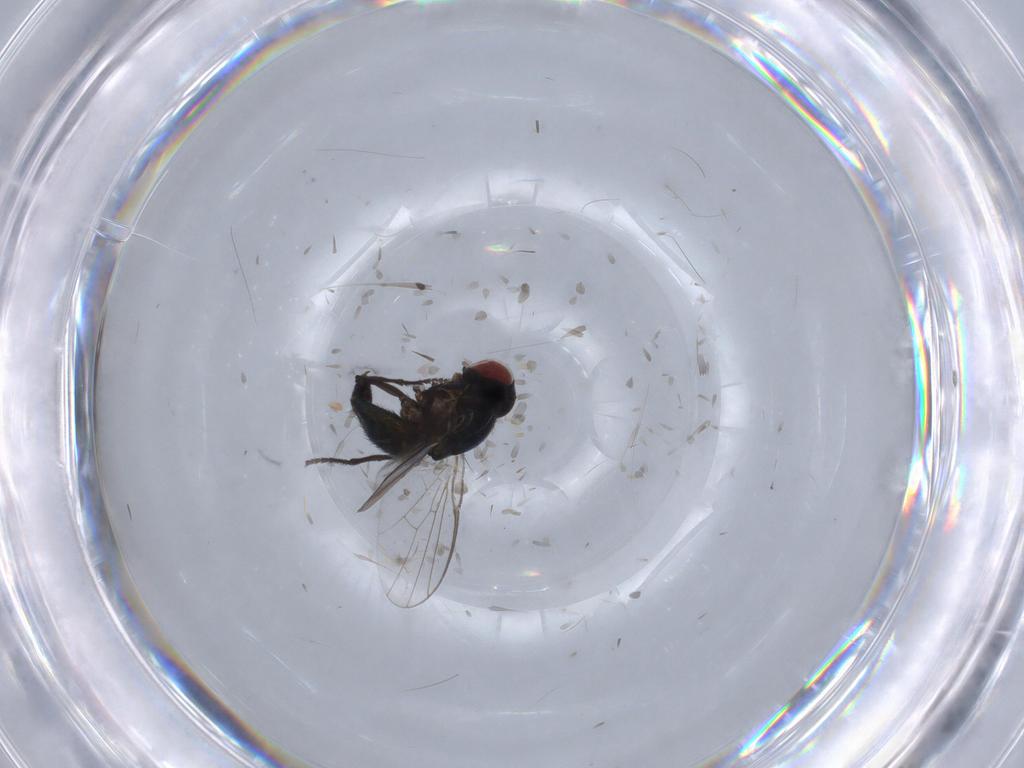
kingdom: Animalia
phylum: Arthropoda
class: Insecta
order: Diptera
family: Agromyzidae
